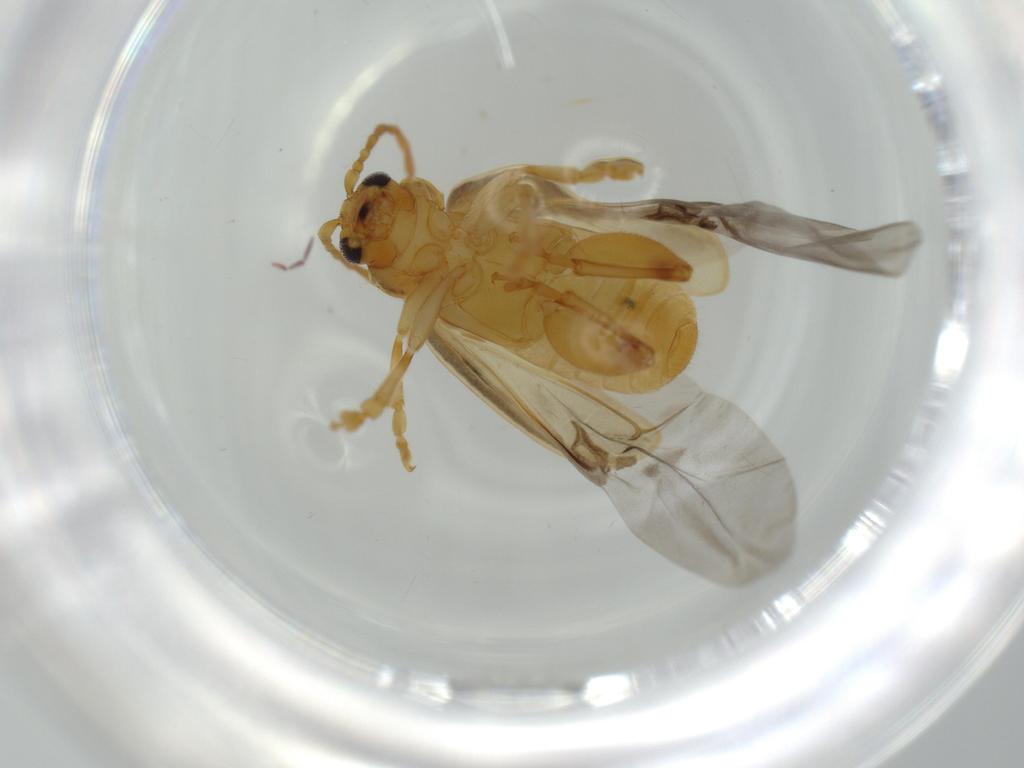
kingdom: Animalia
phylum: Arthropoda
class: Insecta
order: Coleoptera
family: Chrysomelidae
